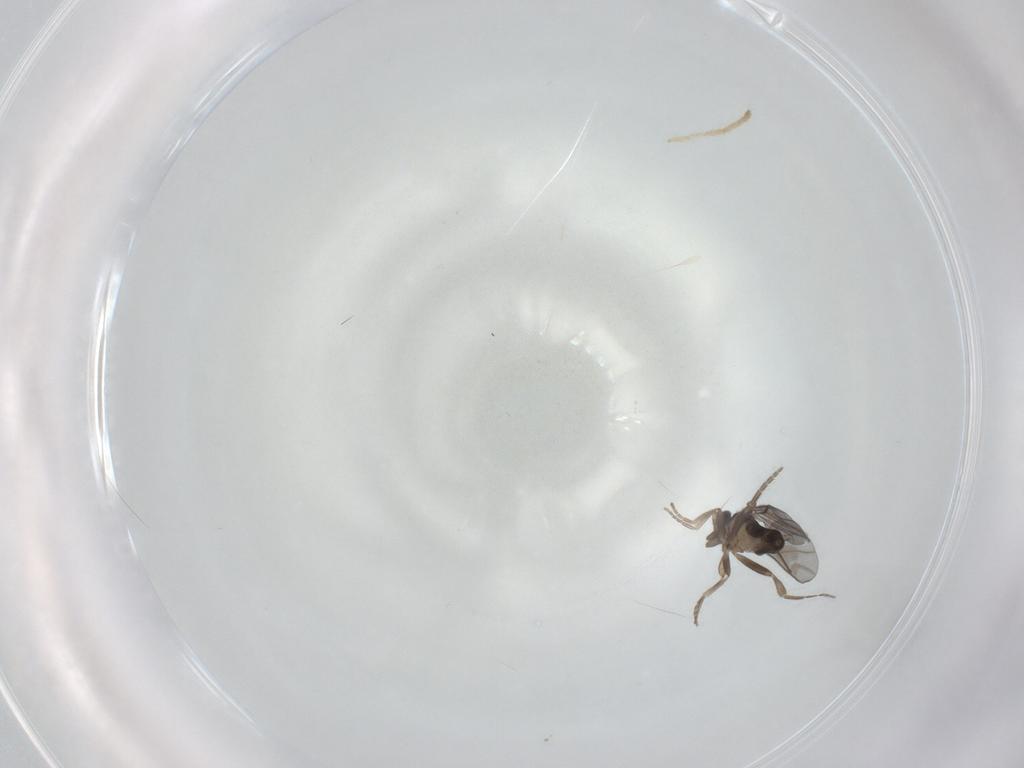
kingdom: Animalia
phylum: Arthropoda
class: Insecta
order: Diptera
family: Chironomidae
